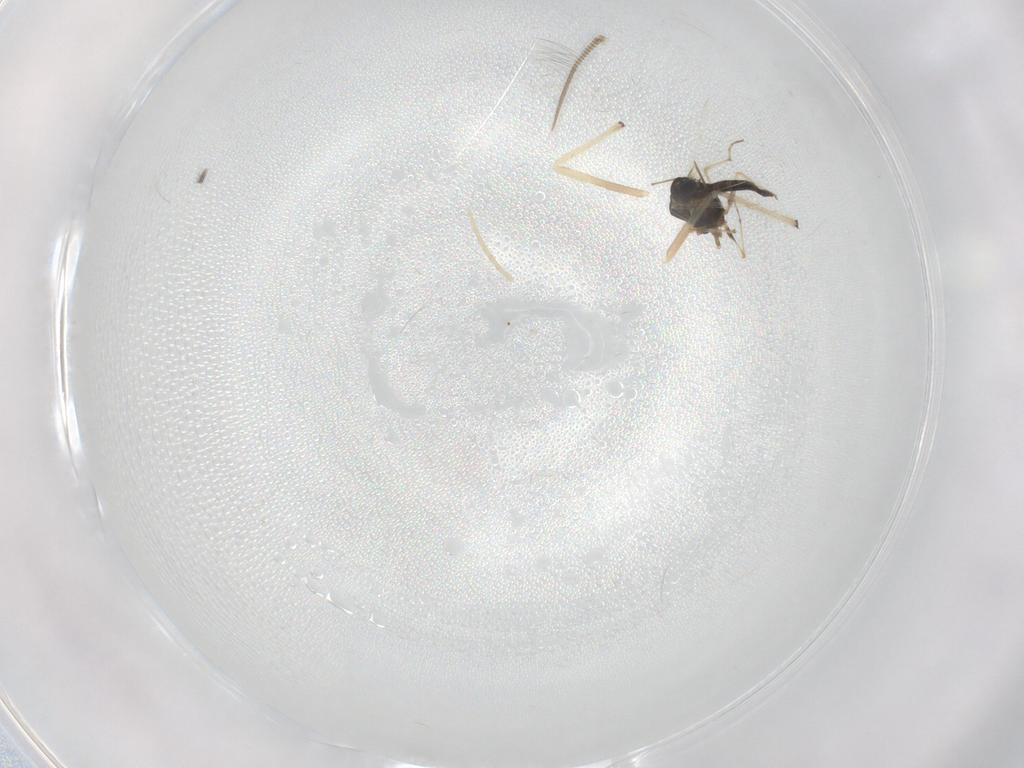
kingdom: Animalia
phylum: Arthropoda
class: Insecta
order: Diptera
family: Chironomidae
